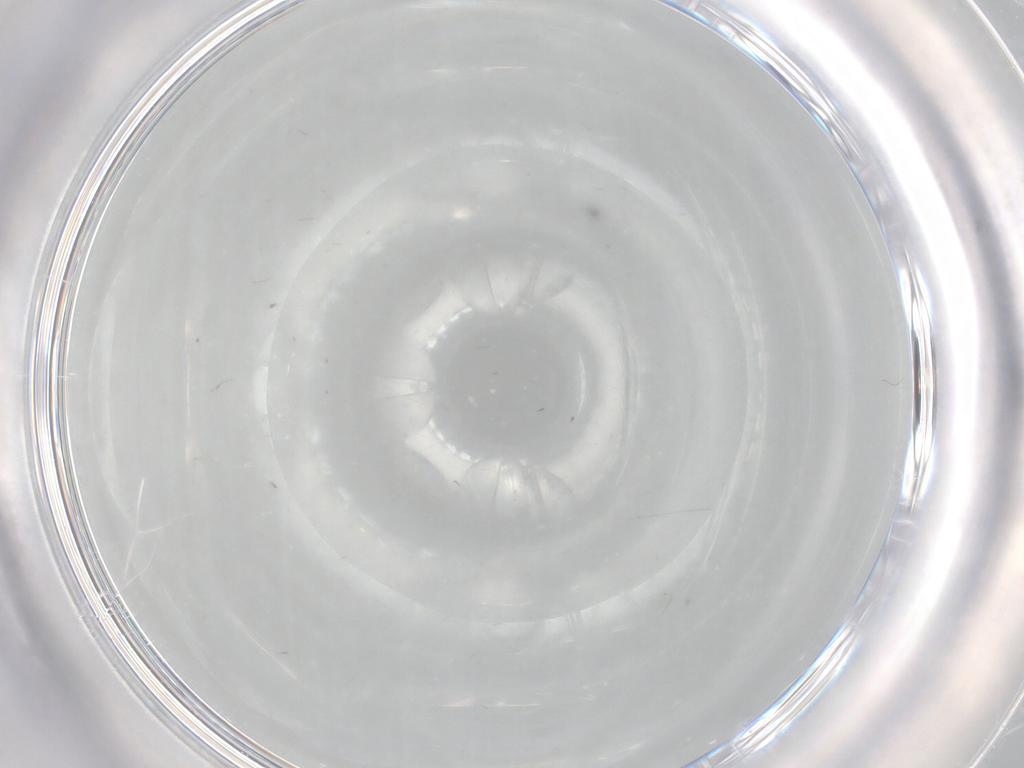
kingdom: Animalia
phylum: Arthropoda
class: Insecta
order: Diptera
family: Cecidomyiidae
